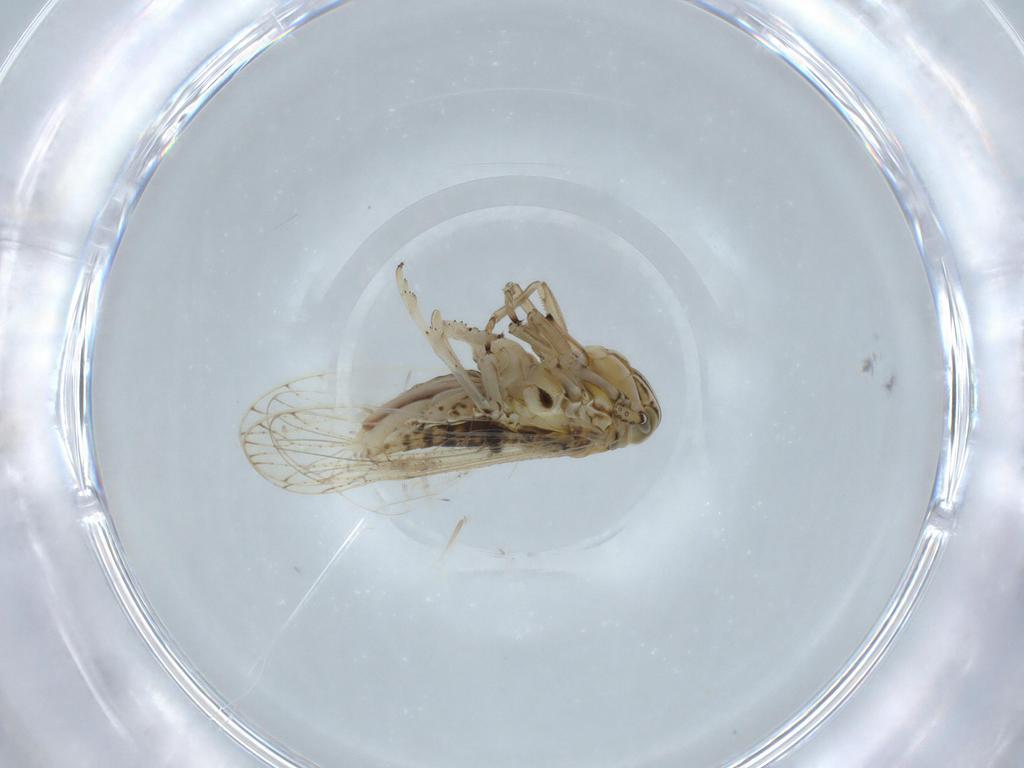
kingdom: Animalia
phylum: Arthropoda
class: Insecta
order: Hemiptera
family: Delphacidae
